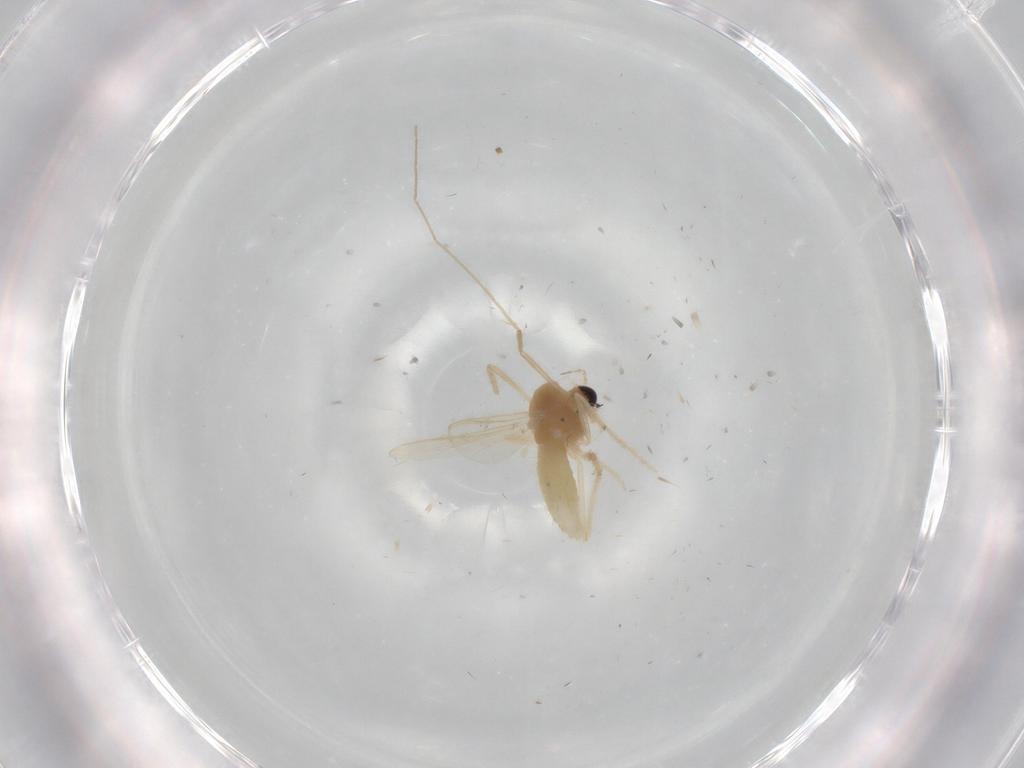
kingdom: Animalia
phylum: Arthropoda
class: Insecta
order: Diptera
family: Chironomidae
